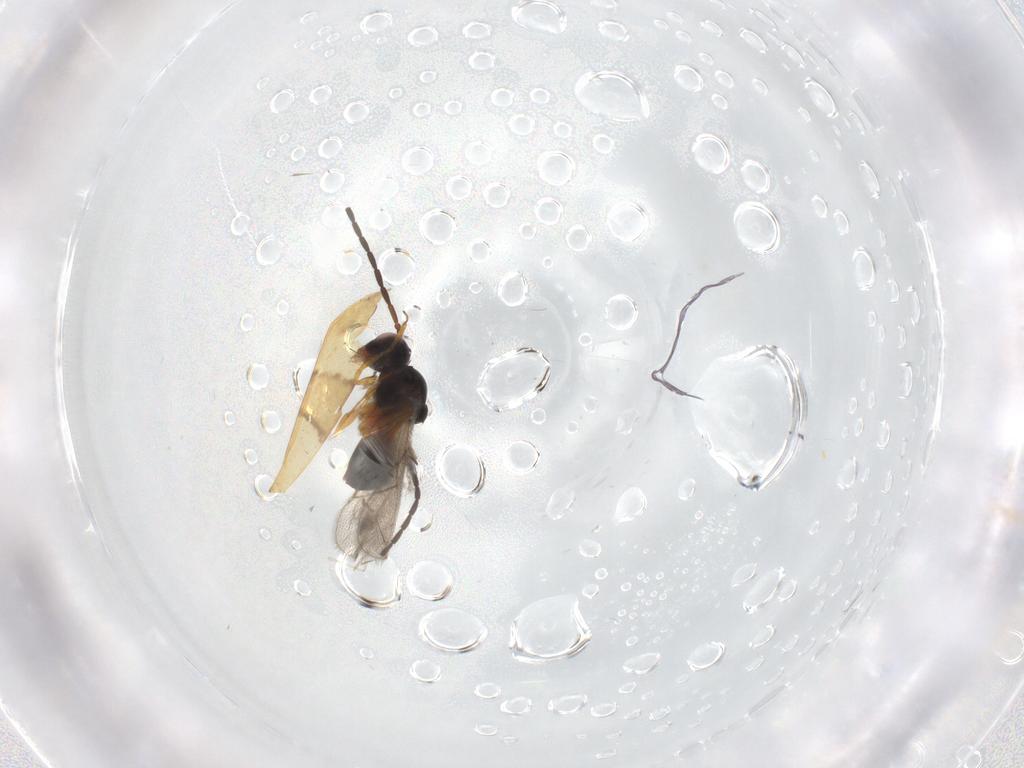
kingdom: Animalia
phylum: Arthropoda
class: Insecta
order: Hymenoptera
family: Figitidae
